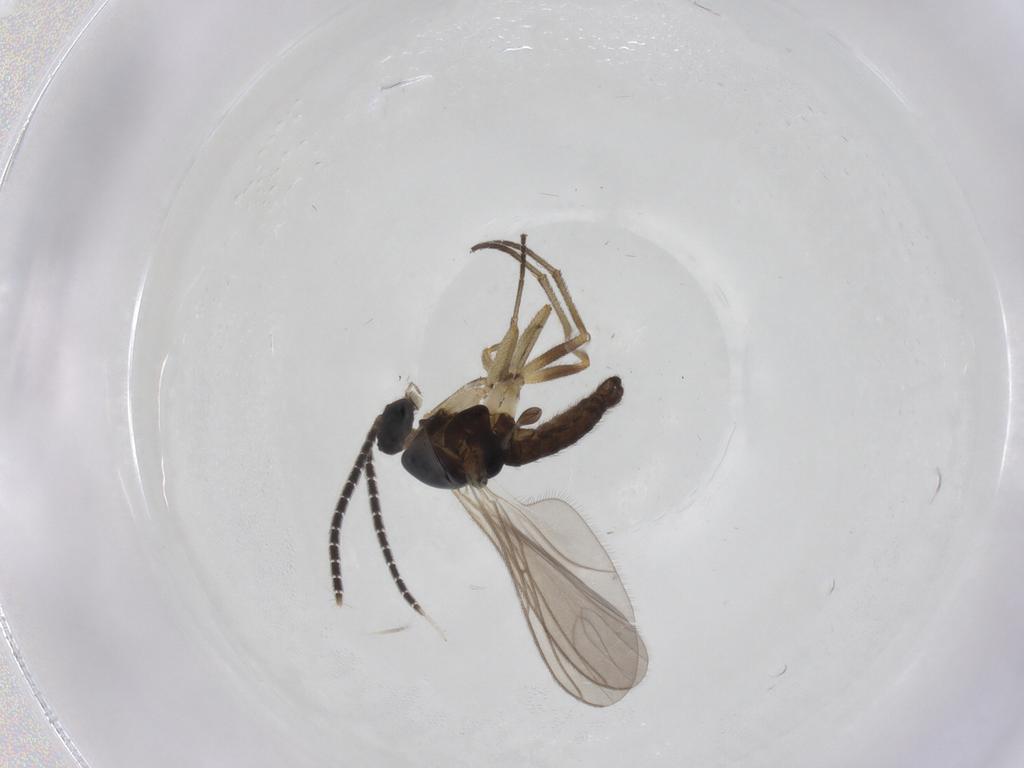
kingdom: Animalia
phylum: Arthropoda
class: Insecta
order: Diptera
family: Sciaridae
